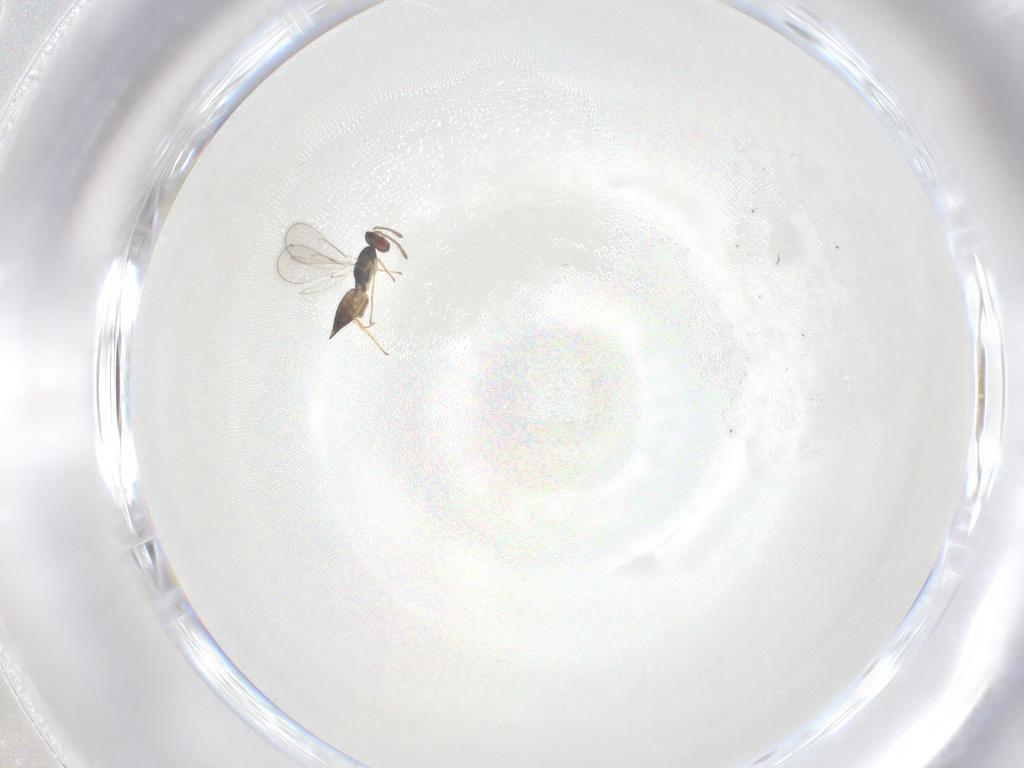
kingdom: Animalia
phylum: Arthropoda
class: Insecta
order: Hymenoptera
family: Eulophidae
